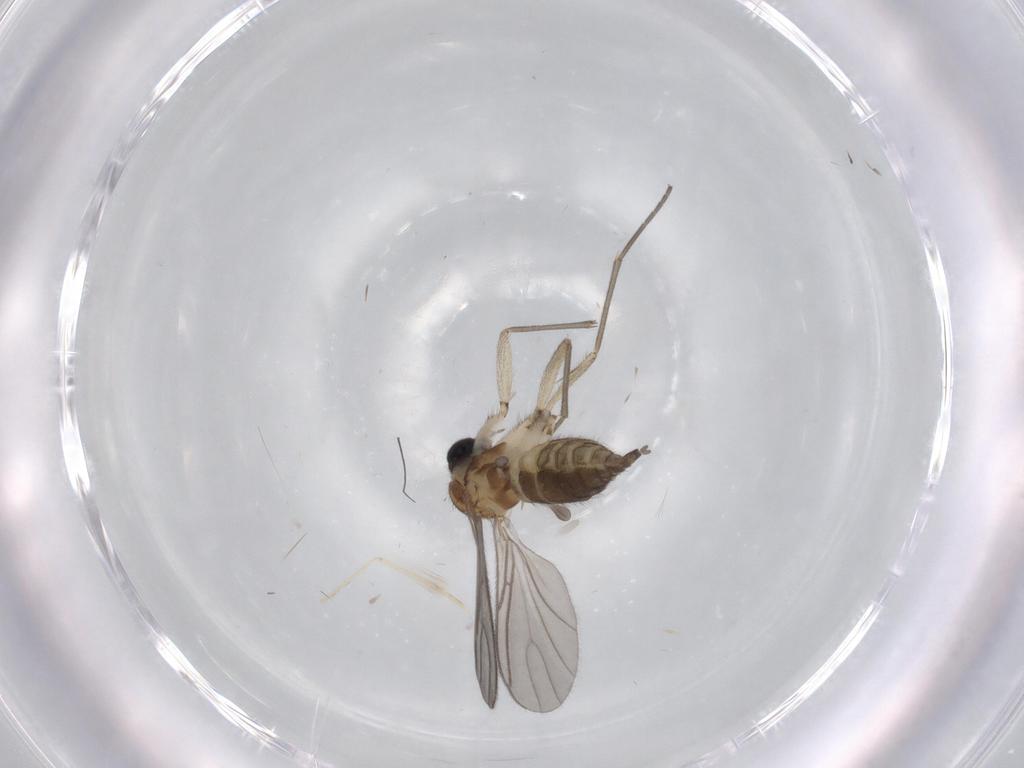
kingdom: Animalia
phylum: Arthropoda
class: Insecta
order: Diptera
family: Sciaridae
